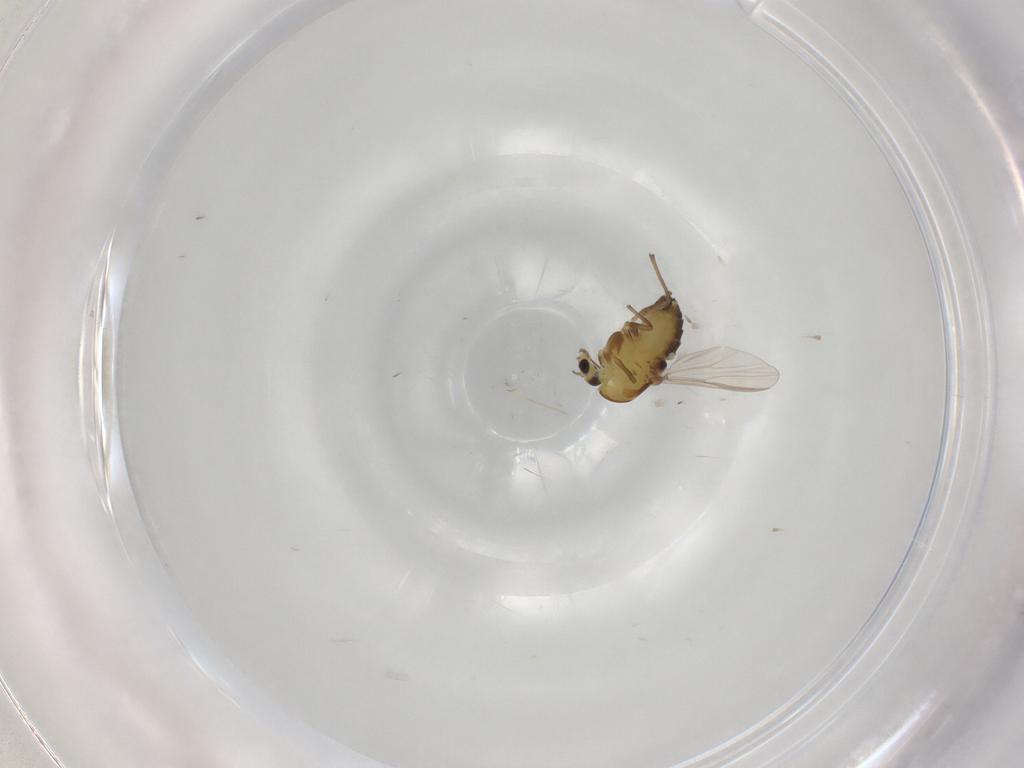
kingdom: Animalia
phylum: Arthropoda
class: Insecta
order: Diptera
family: Chironomidae
